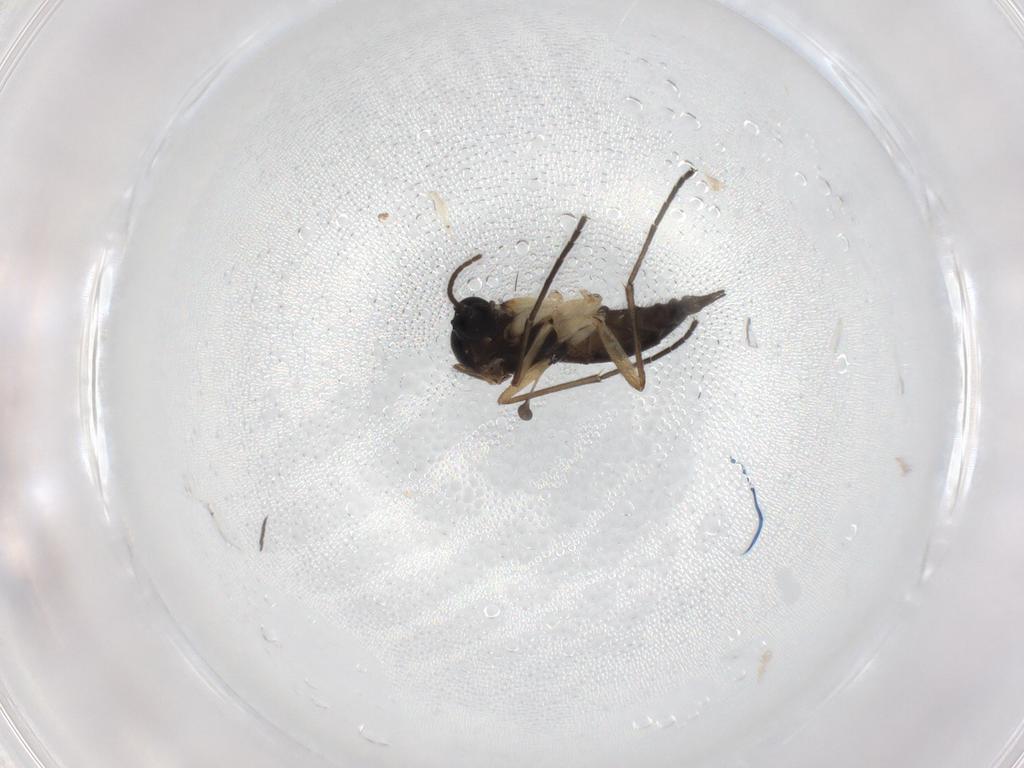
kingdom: Animalia
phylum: Arthropoda
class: Insecta
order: Diptera
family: Sciaridae
